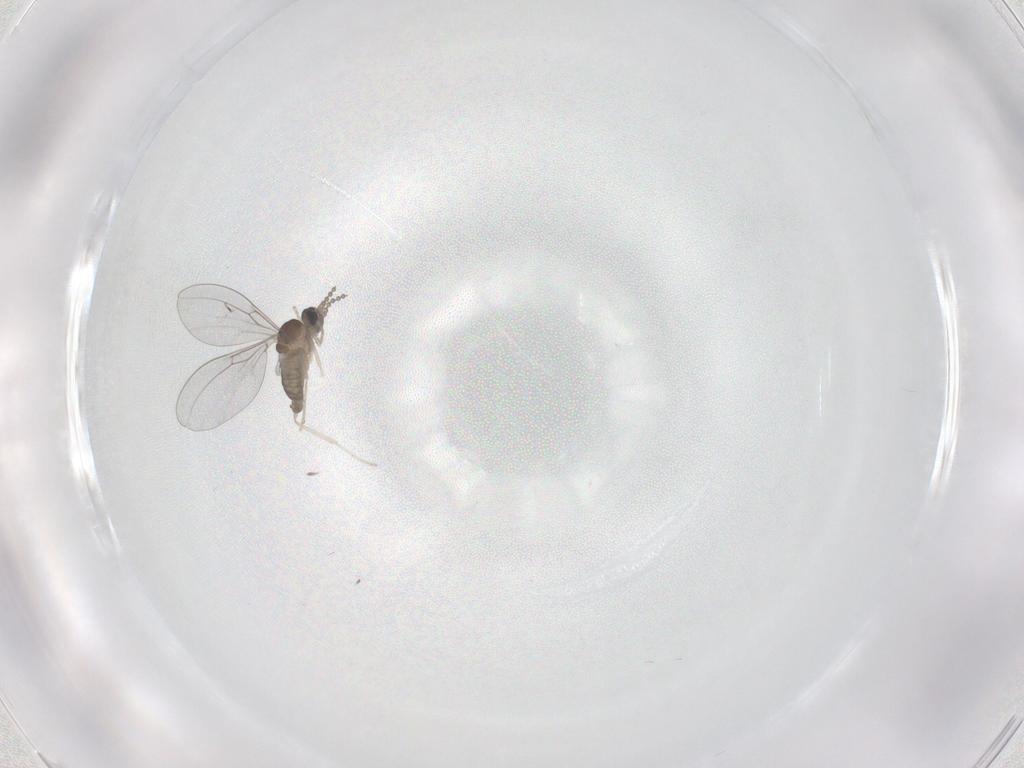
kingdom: Animalia
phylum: Arthropoda
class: Insecta
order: Diptera
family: Chironomidae
